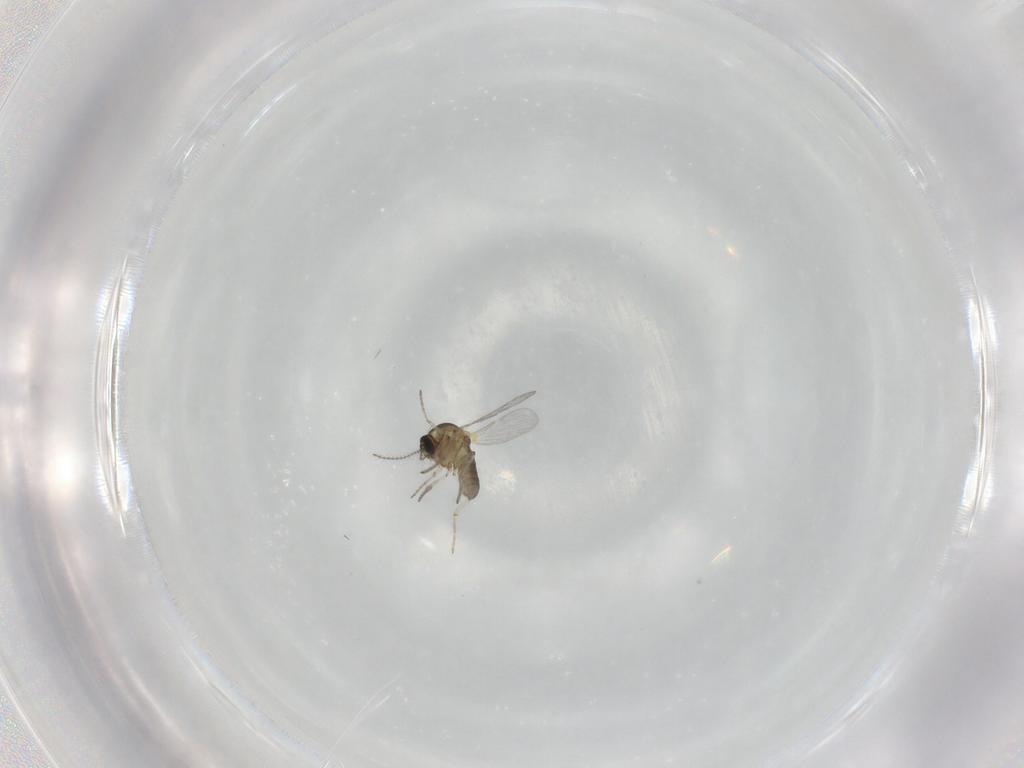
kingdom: Animalia
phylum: Arthropoda
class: Insecta
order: Diptera
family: Ceratopogonidae
